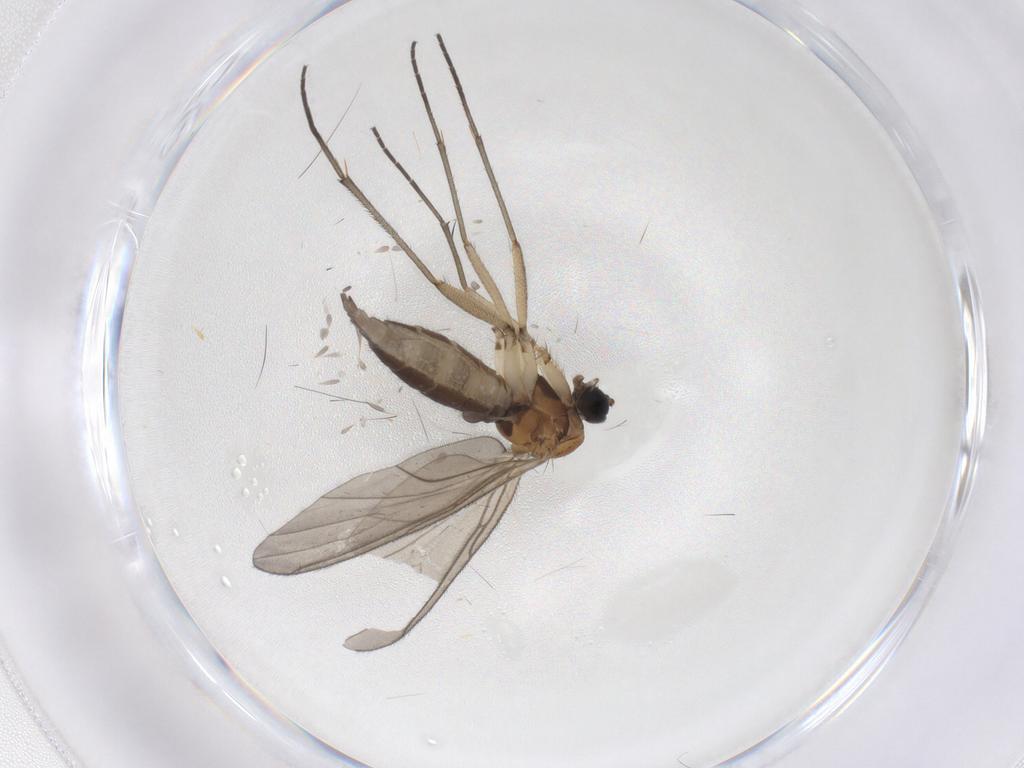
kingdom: Animalia
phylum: Arthropoda
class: Insecta
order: Diptera
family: Sciaridae
